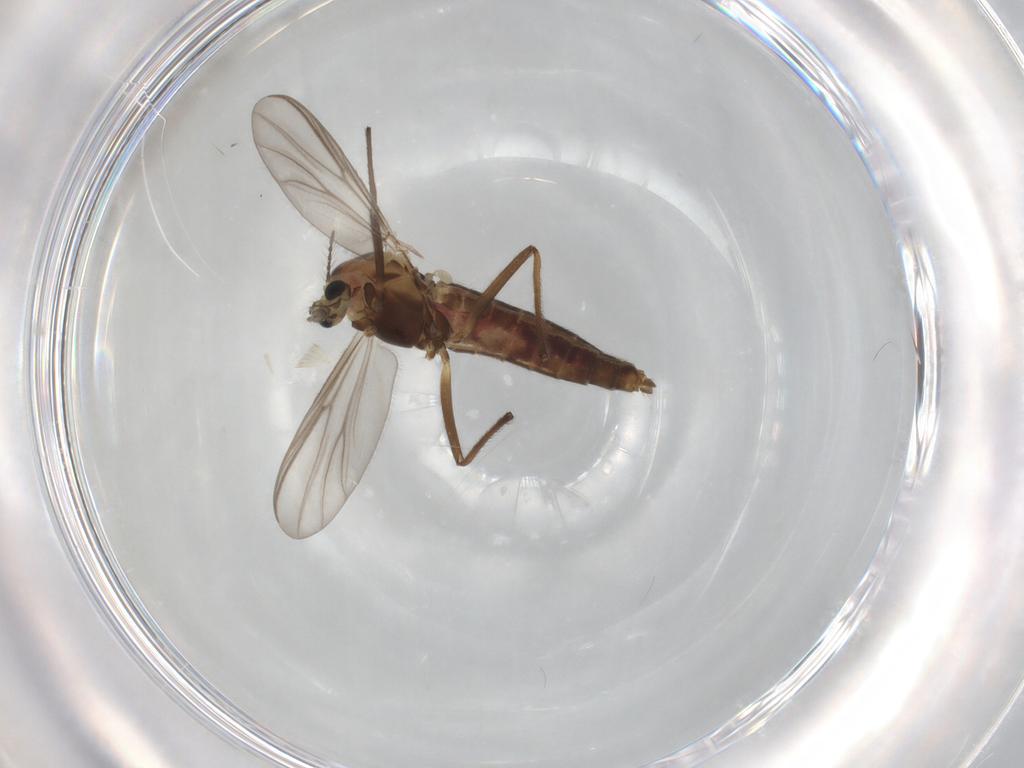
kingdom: Animalia
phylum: Arthropoda
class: Insecta
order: Diptera
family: Chironomidae
